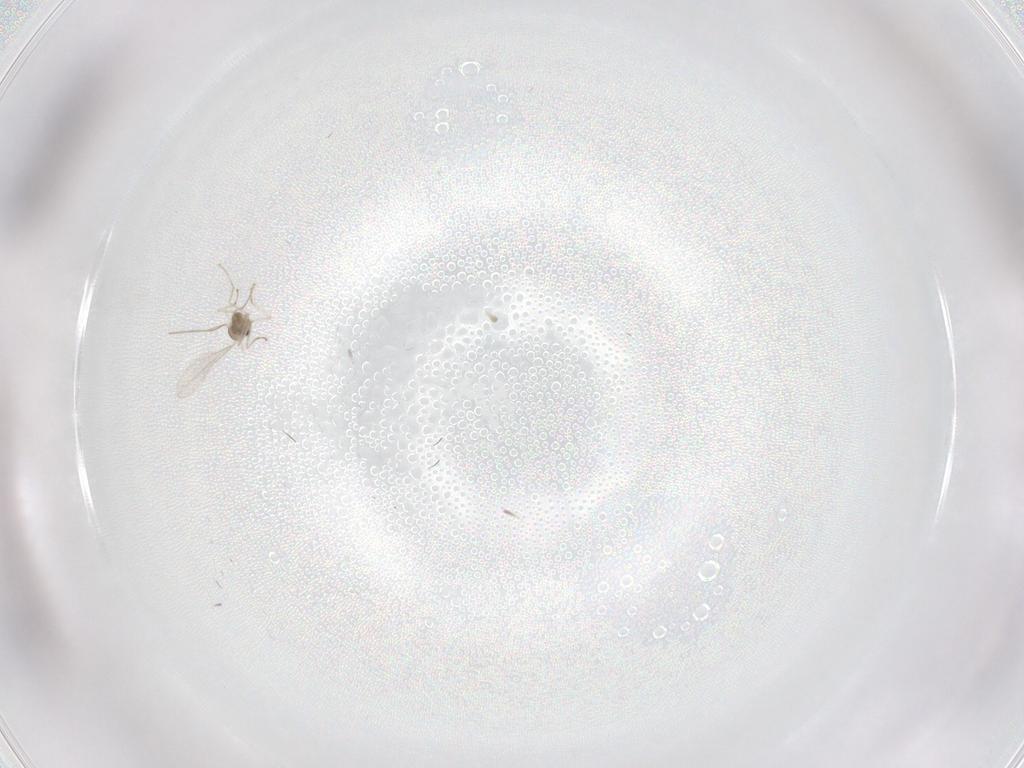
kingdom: Animalia
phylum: Arthropoda
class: Insecta
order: Diptera
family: Cecidomyiidae
